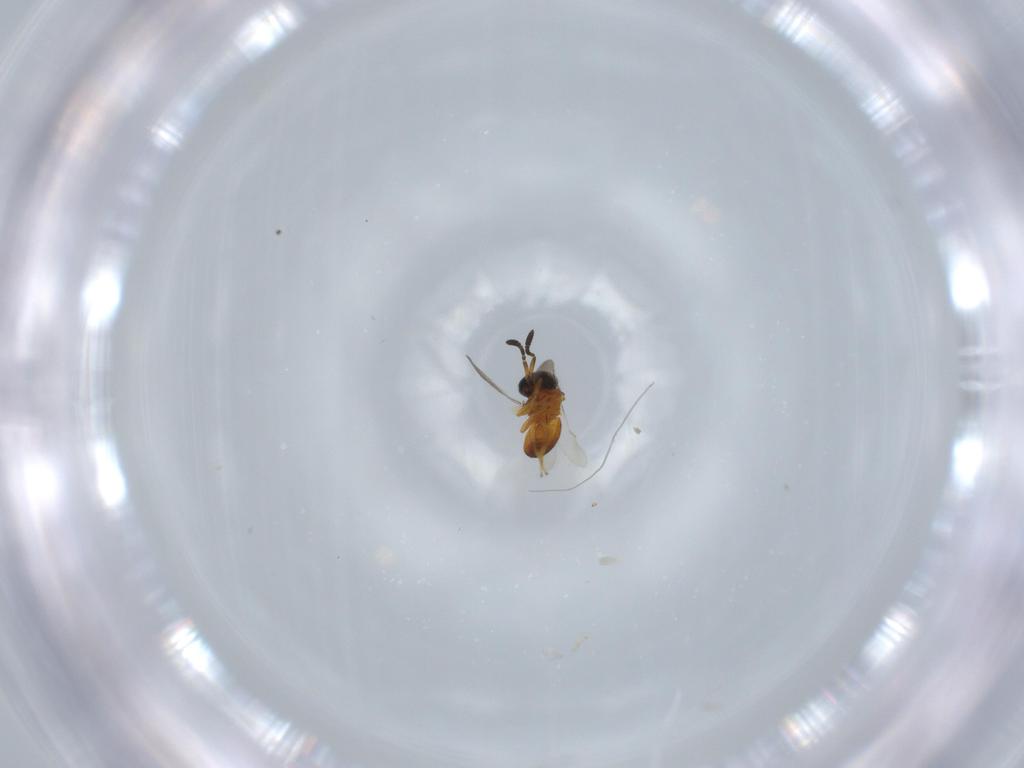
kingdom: Animalia
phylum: Arthropoda
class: Insecta
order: Hymenoptera
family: Scelionidae
